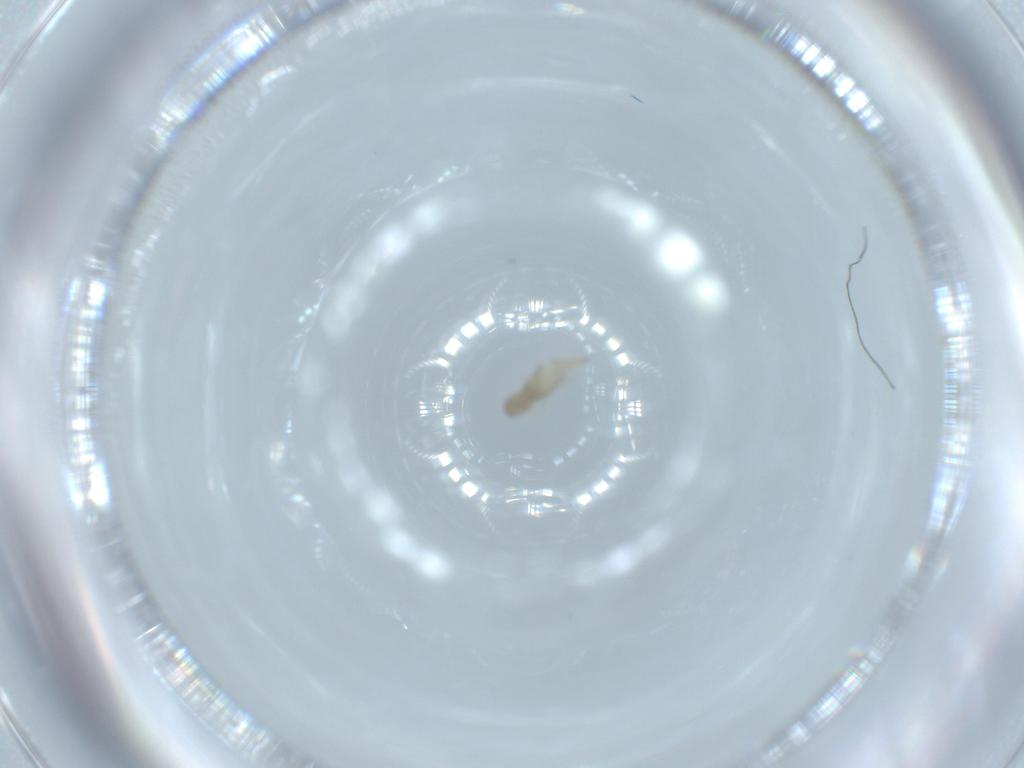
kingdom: Animalia
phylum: Arthropoda
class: Insecta
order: Diptera
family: Cecidomyiidae
